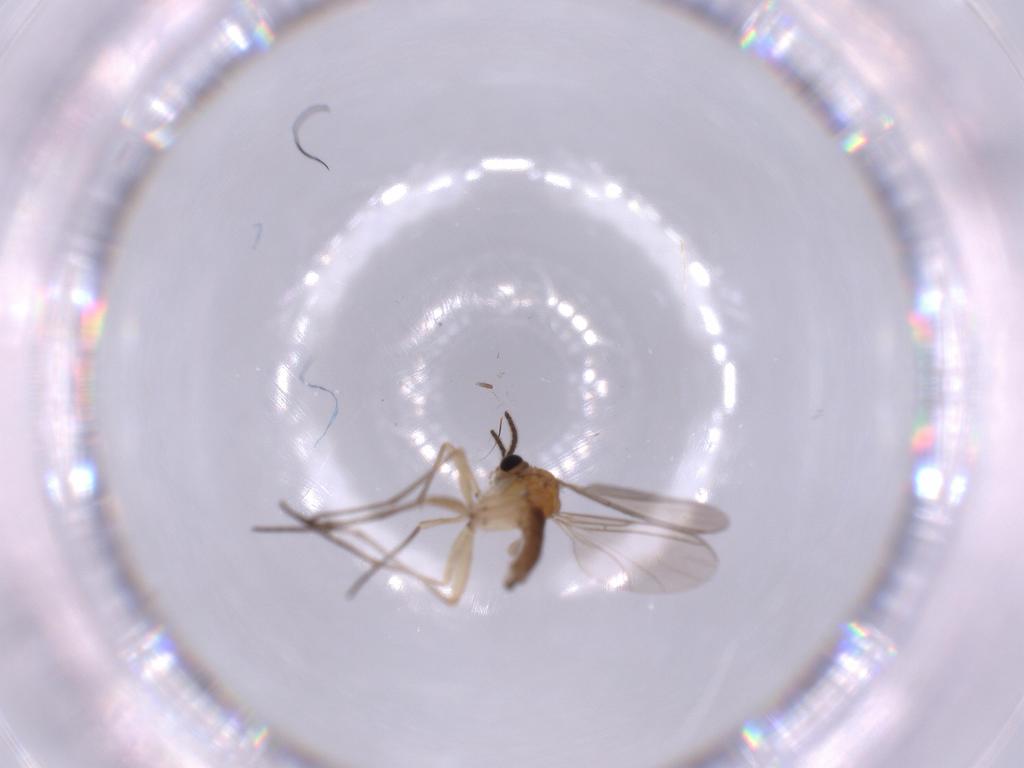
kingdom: Animalia
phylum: Arthropoda
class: Insecta
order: Diptera
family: Sciaridae
